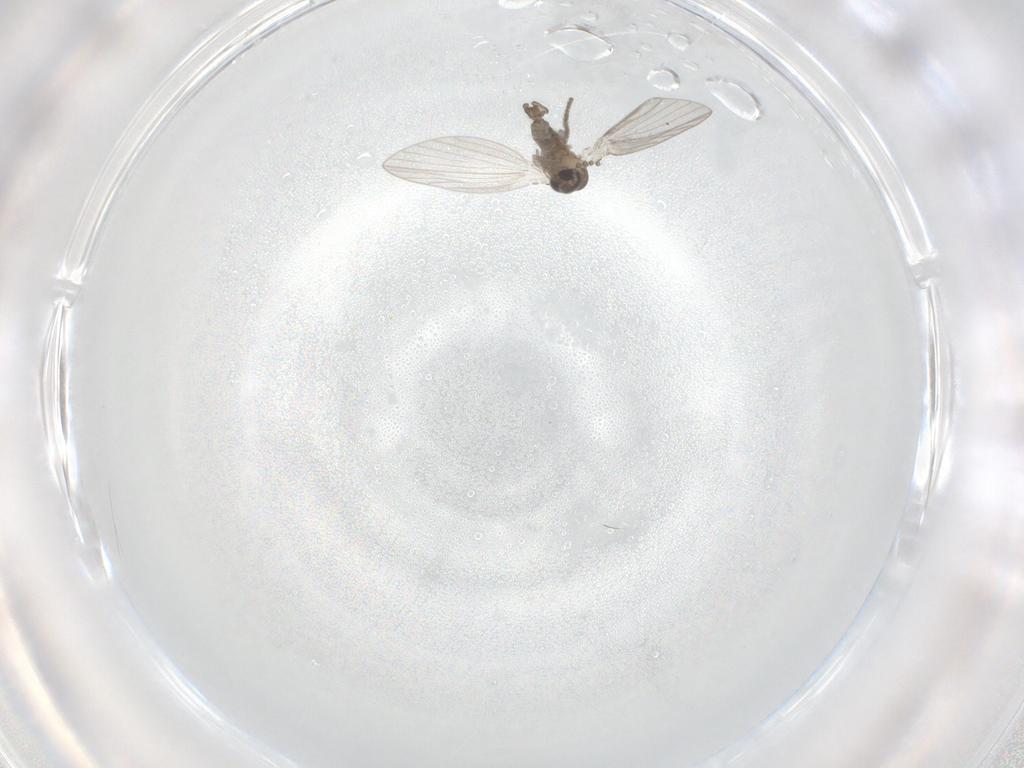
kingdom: Animalia
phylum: Arthropoda
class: Insecta
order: Diptera
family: Psychodidae
